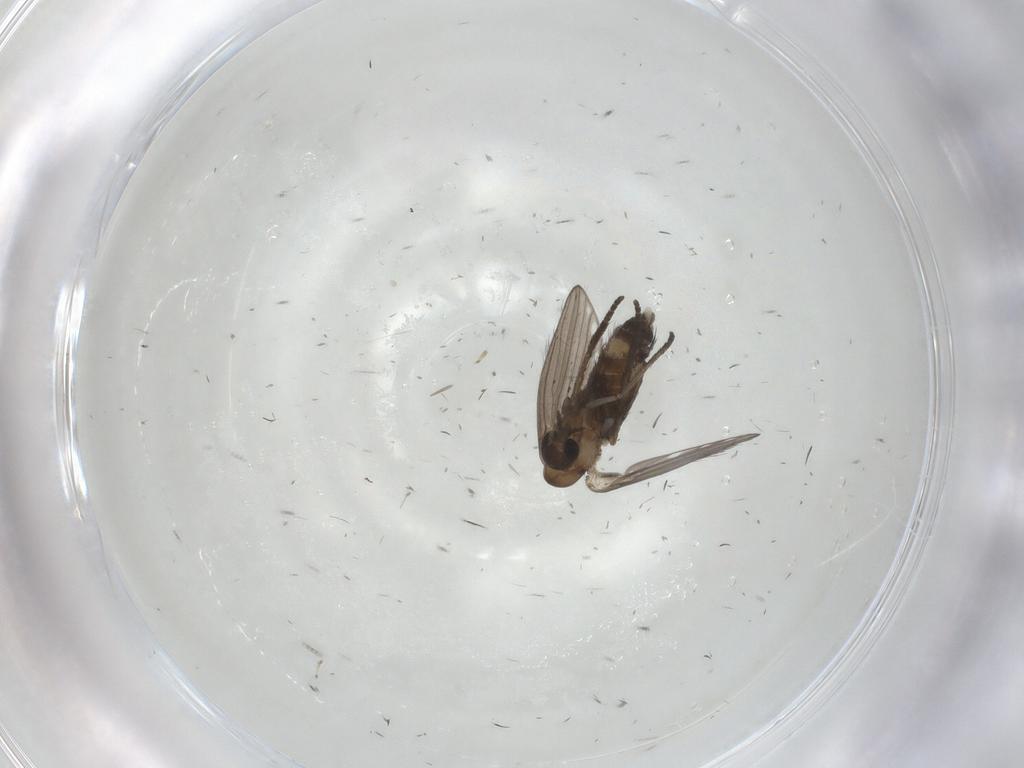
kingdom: Animalia
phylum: Arthropoda
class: Insecta
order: Diptera
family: Psychodidae
